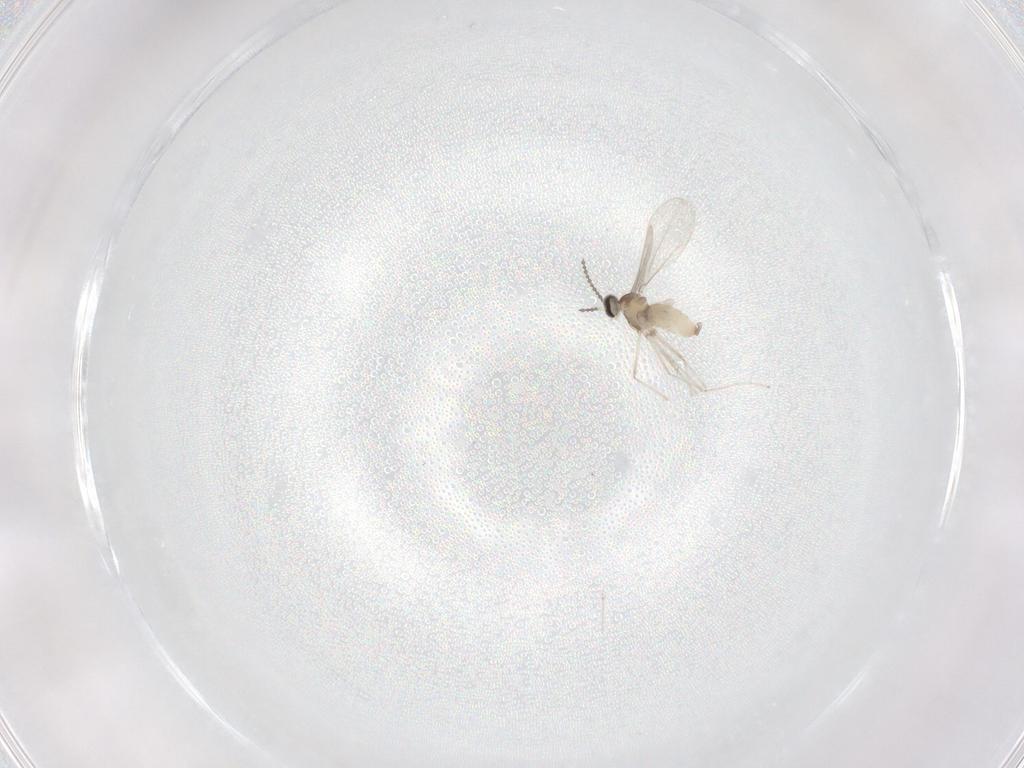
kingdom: Animalia
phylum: Arthropoda
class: Insecta
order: Diptera
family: Cecidomyiidae
